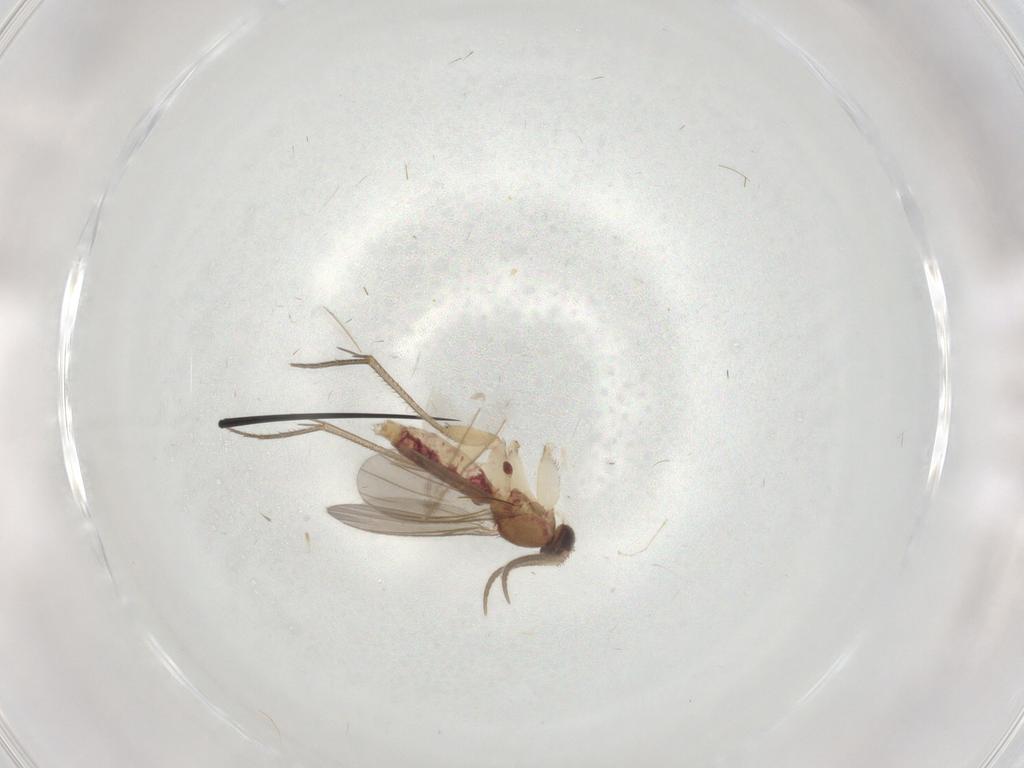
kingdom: Animalia
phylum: Arthropoda
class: Insecta
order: Diptera
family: Mycetophilidae
